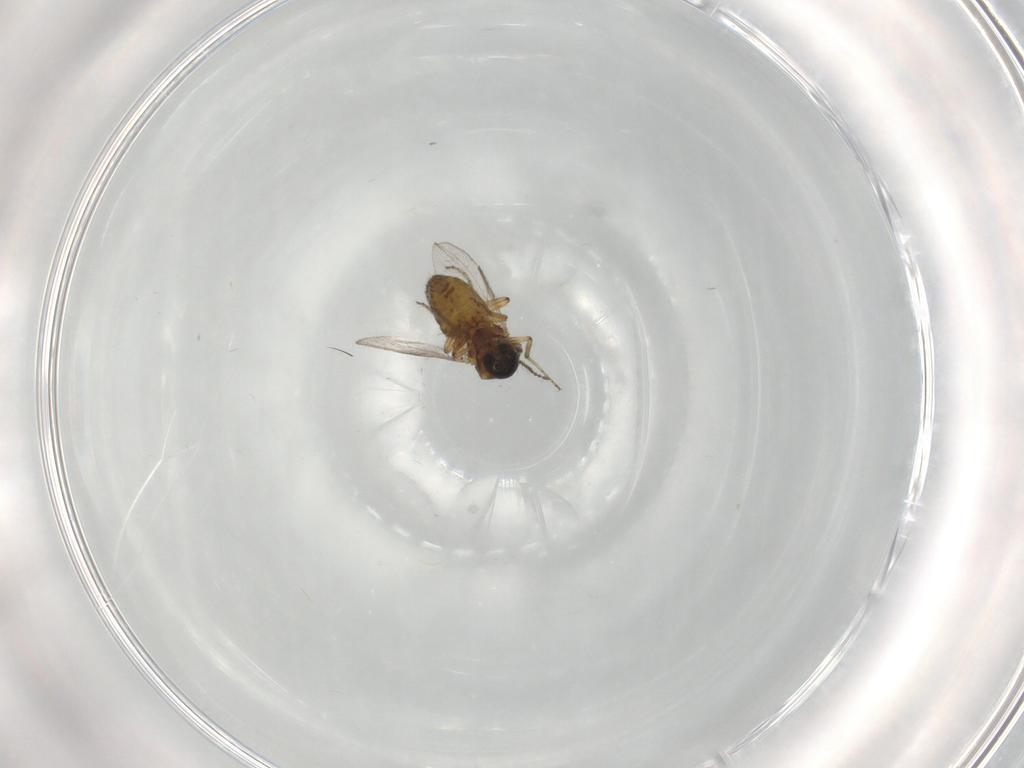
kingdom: Animalia
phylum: Arthropoda
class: Insecta
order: Diptera
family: Ceratopogonidae
